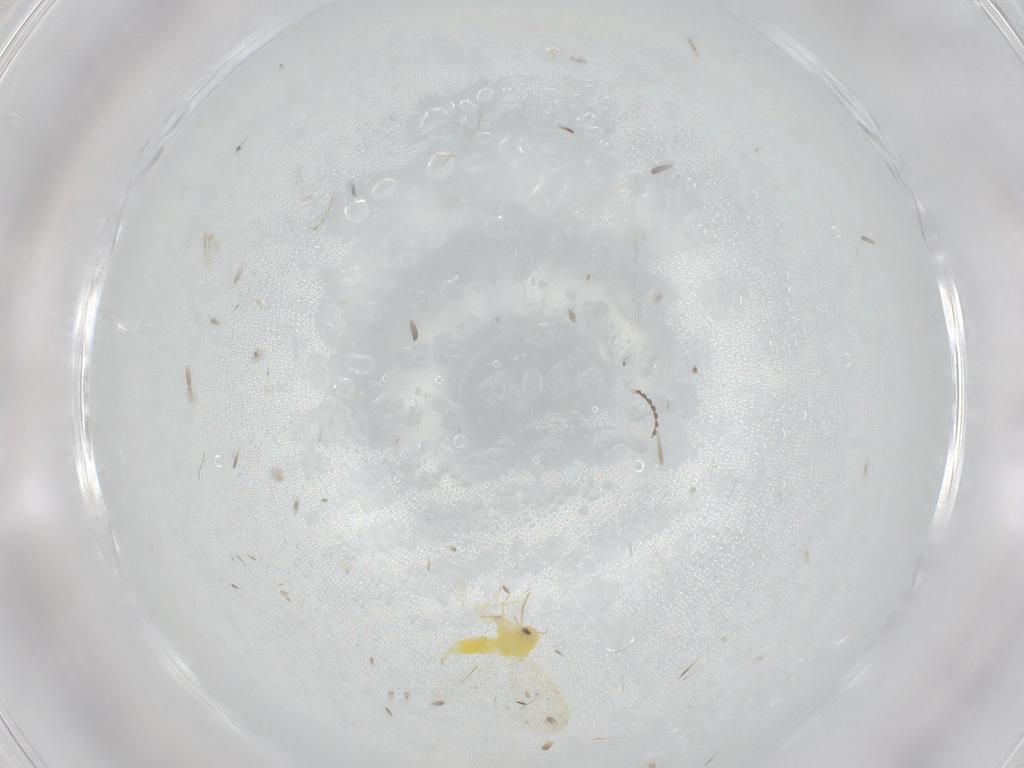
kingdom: Animalia
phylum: Arthropoda
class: Insecta
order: Hemiptera
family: Aleyrodidae
